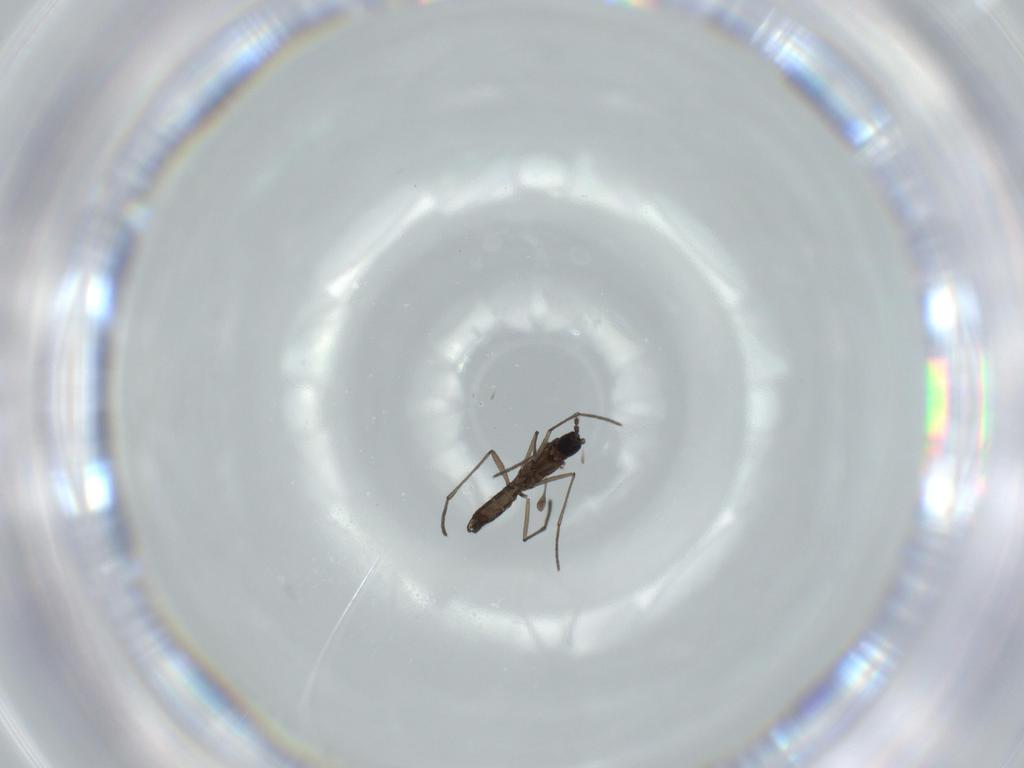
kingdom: Animalia
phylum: Arthropoda
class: Insecta
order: Diptera
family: Sciaridae
